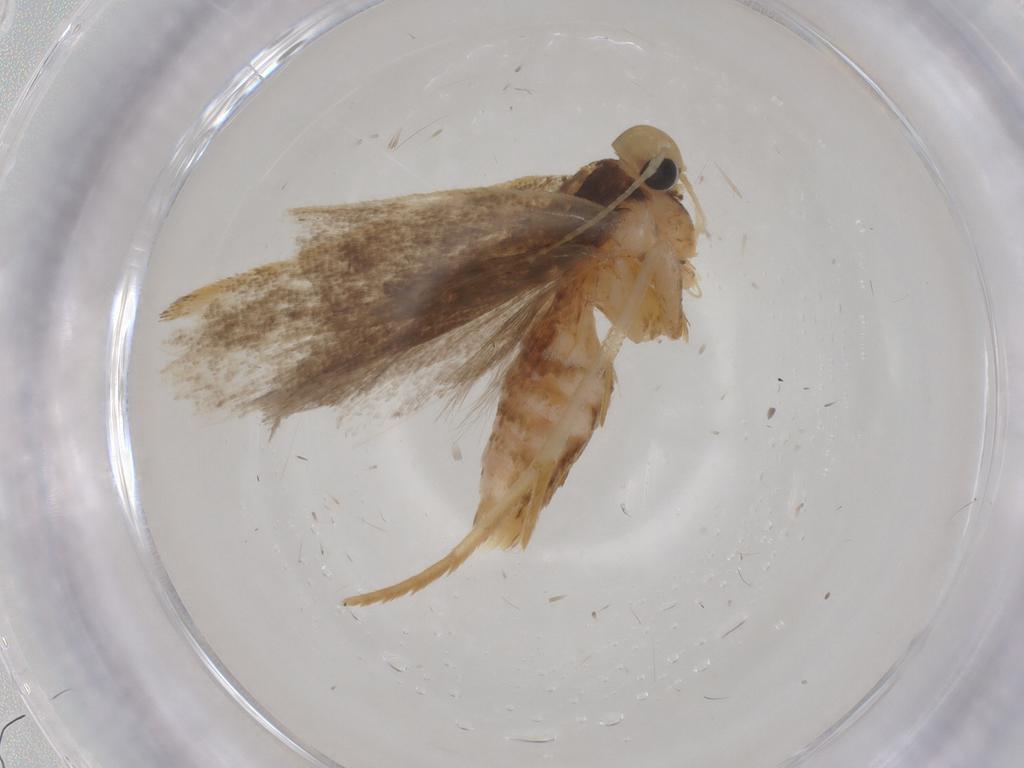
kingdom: Animalia
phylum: Arthropoda
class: Insecta
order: Lepidoptera
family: Gelechiidae
